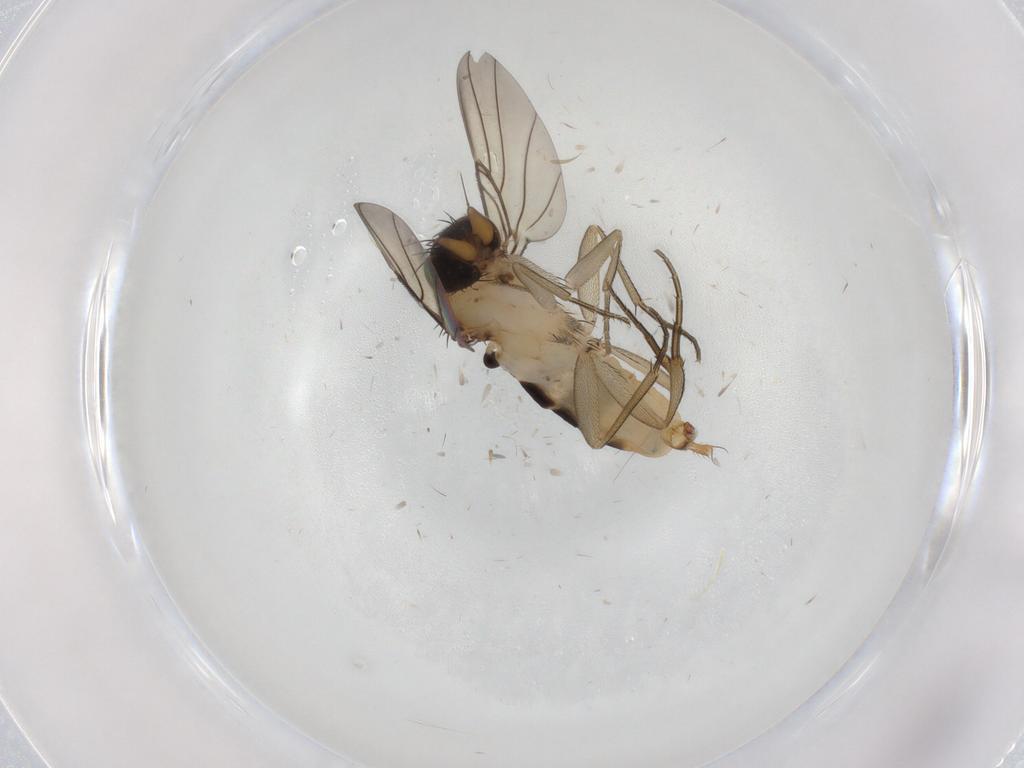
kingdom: Animalia
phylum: Arthropoda
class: Insecta
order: Diptera
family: Phoridae
